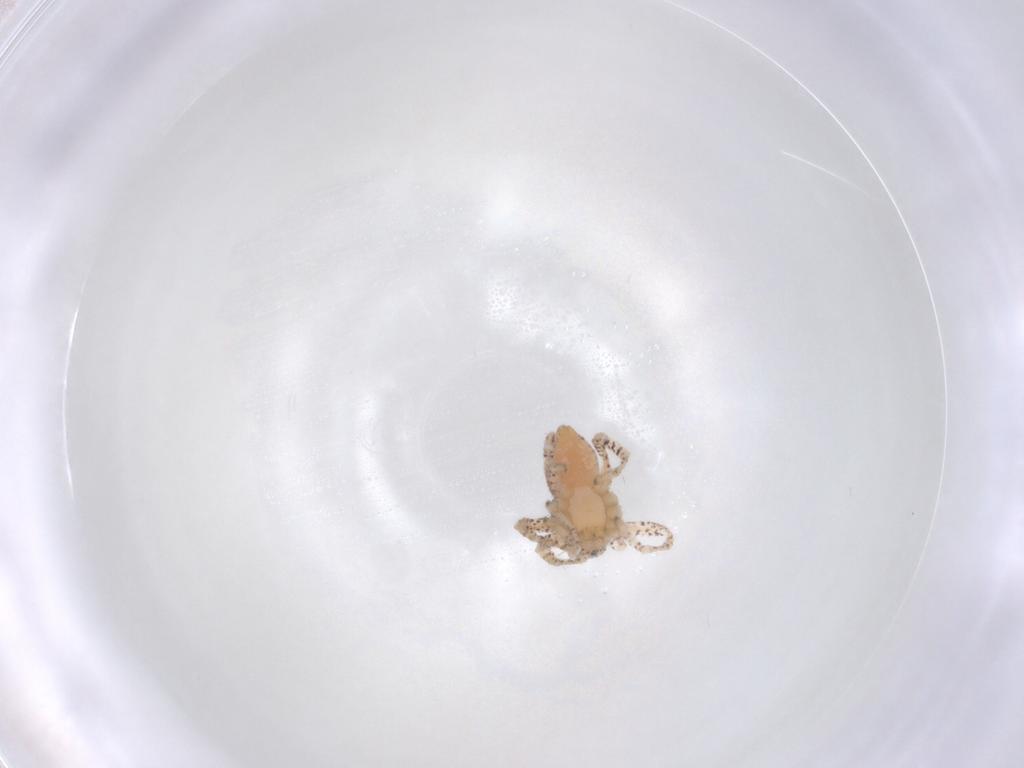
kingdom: Animalia
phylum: Arthropoda
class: Arachnida
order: Araneae
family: Philodromidae
